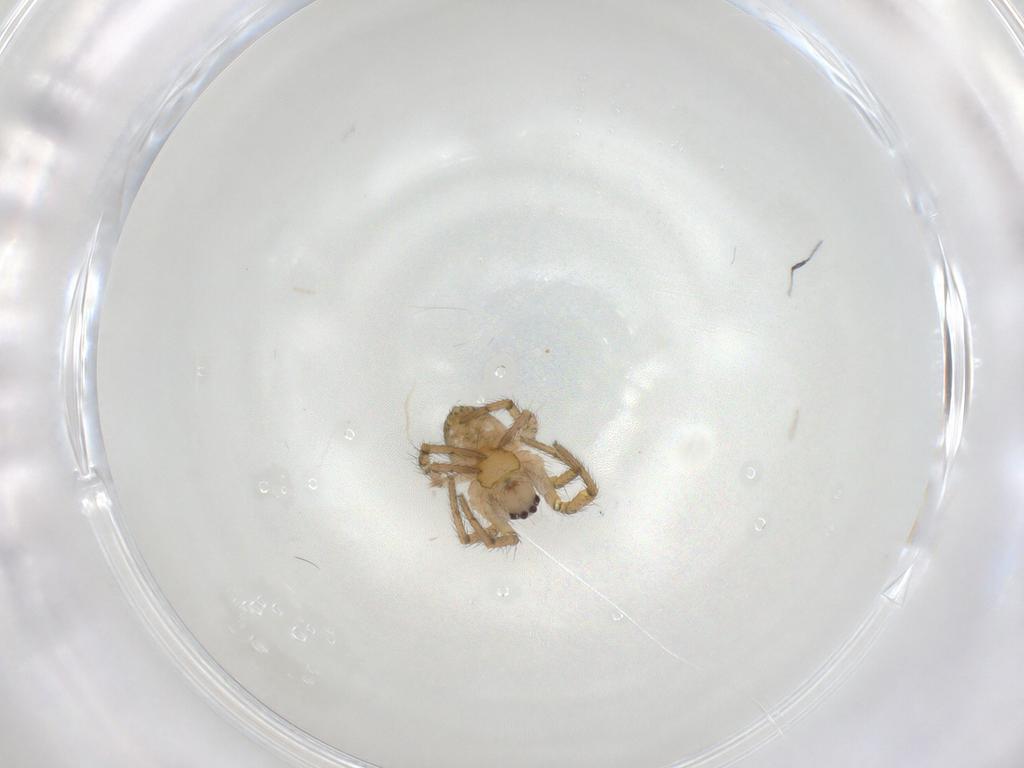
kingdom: Animalia
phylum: Arthropoda
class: Arachnida
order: Araneae
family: Araneidae
